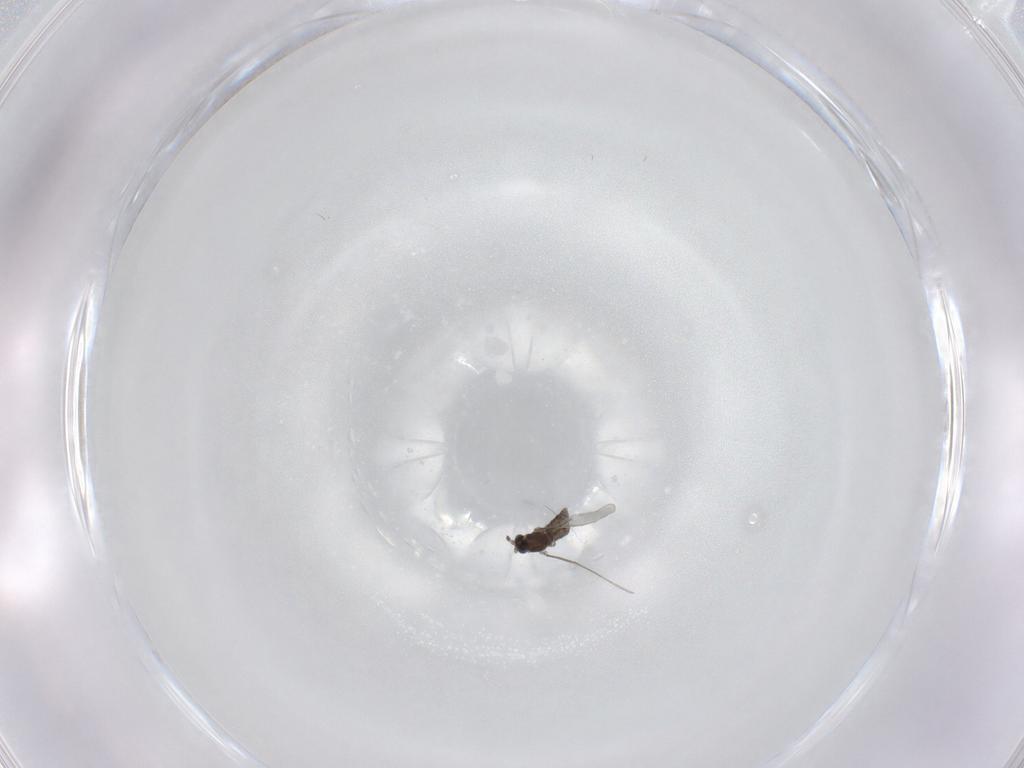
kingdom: Animalia
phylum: Arthropoda
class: Insecta
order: Diptera
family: Cecidomyiidae
